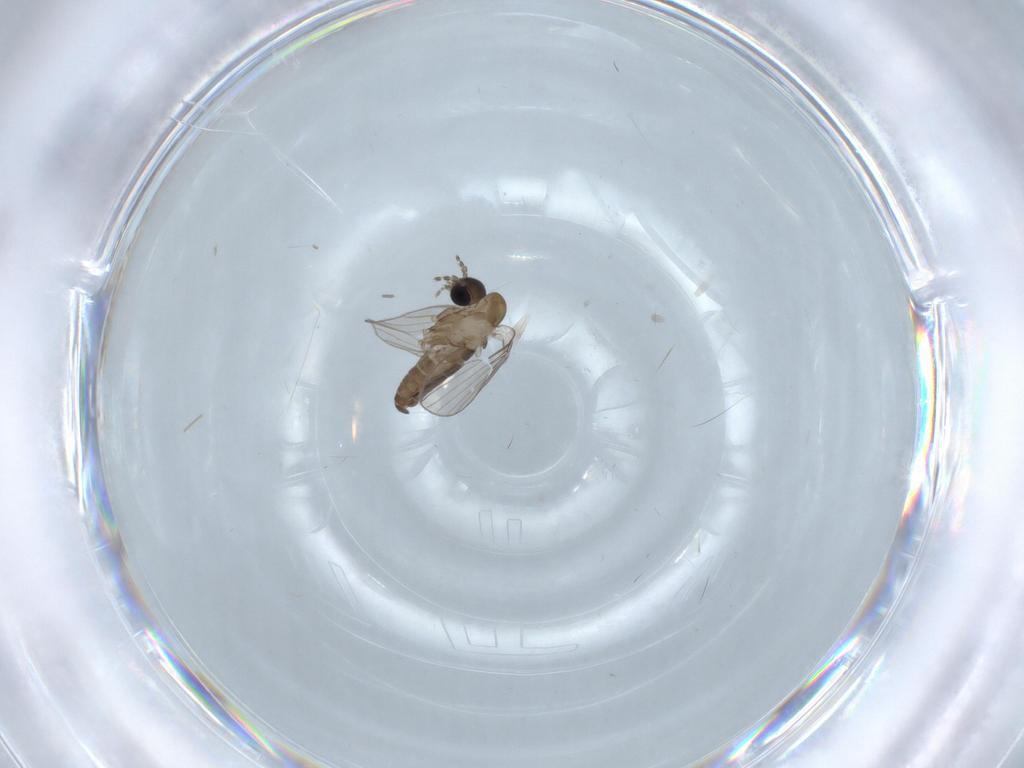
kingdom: Animalia
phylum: Arthropoda
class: Insecta
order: Diptera
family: Psychodidae
